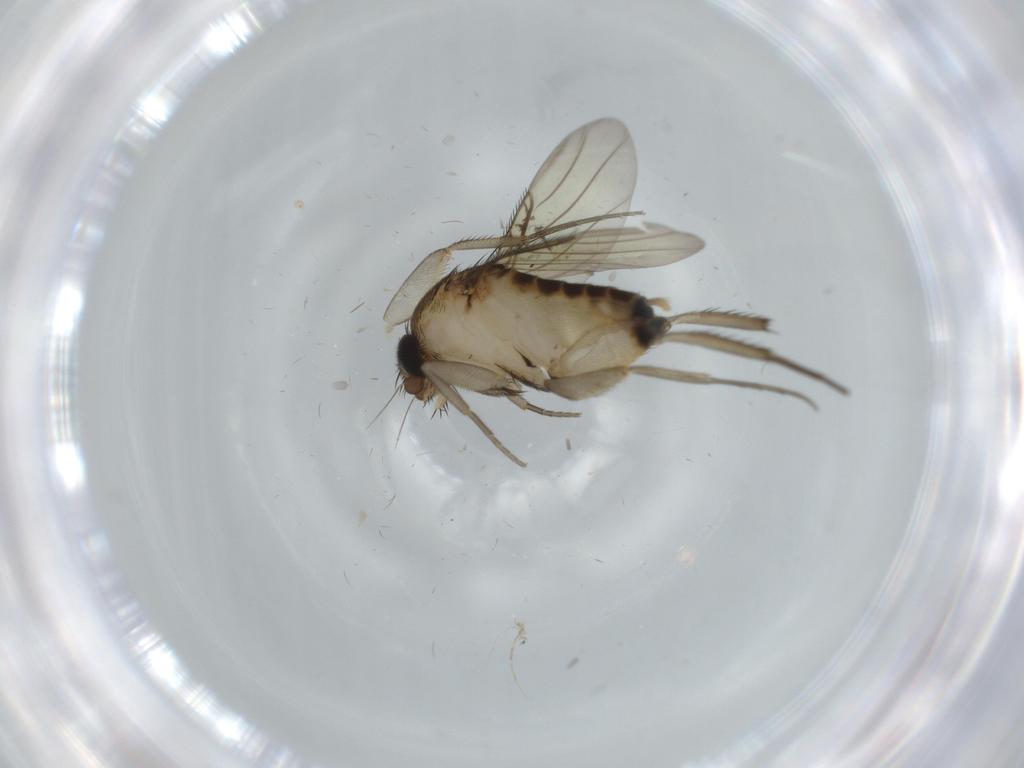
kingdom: Animalia
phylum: Arthropoda
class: Insecta
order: Diptera
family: Phoridae
